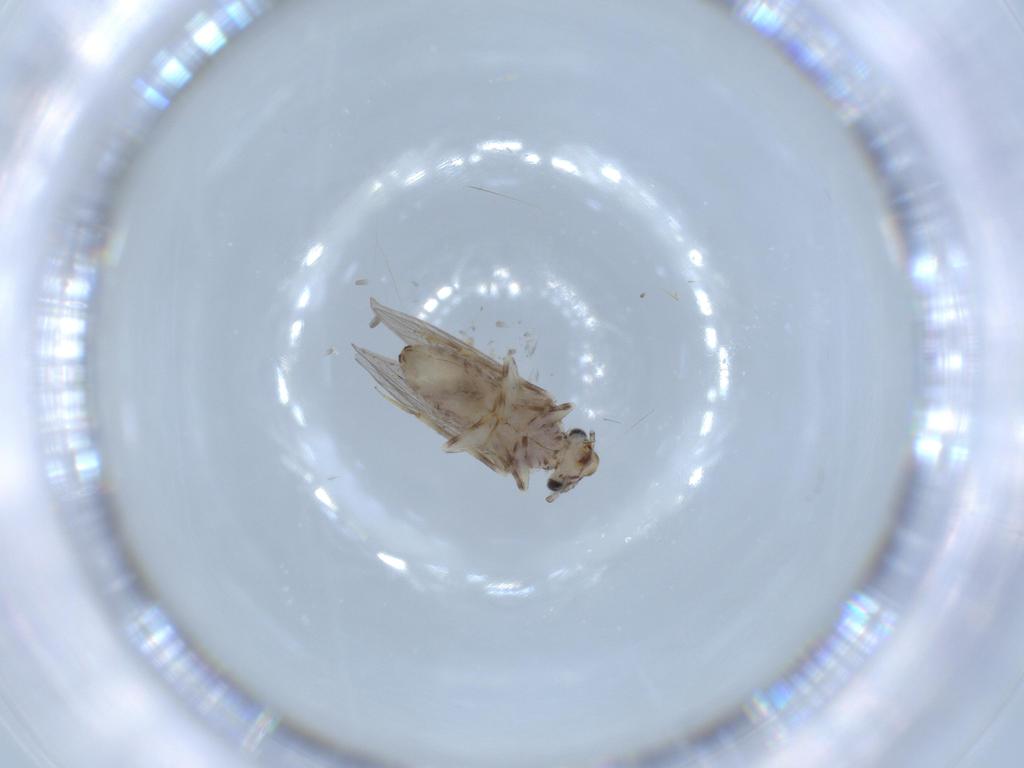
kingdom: Animalia
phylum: Arthropoda
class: Insecta
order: Psocodea
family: Lepidopsocidae
